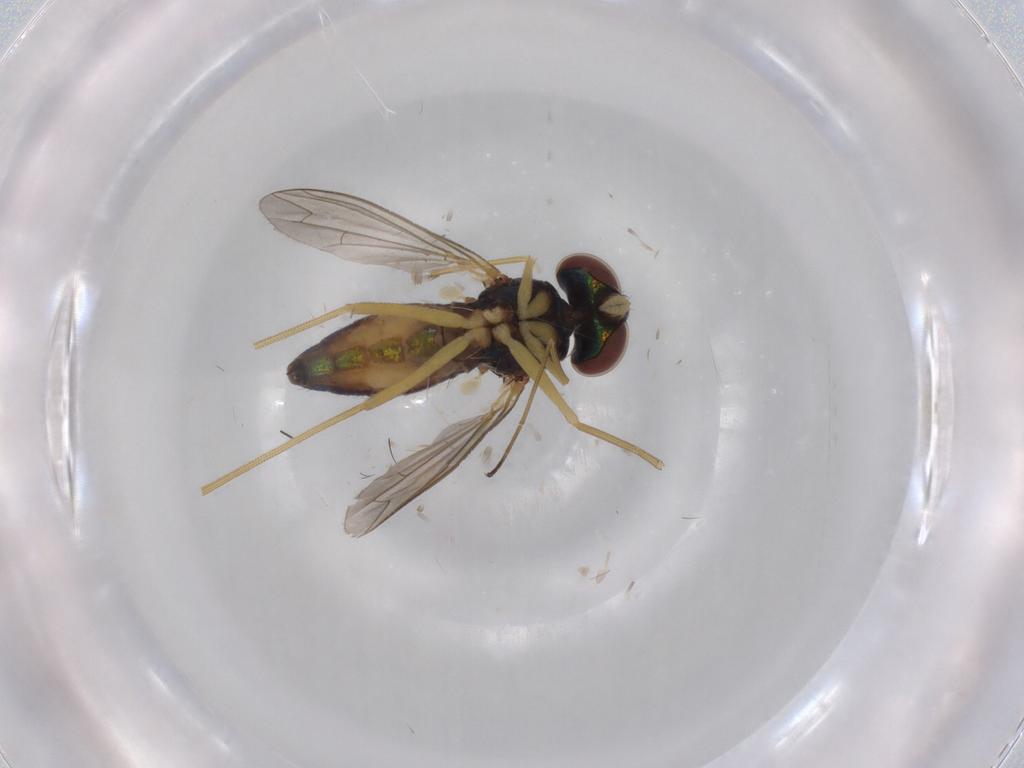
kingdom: Animalia
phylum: Arthropoda
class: Insecta
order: Diptera
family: Dolichopodidae
